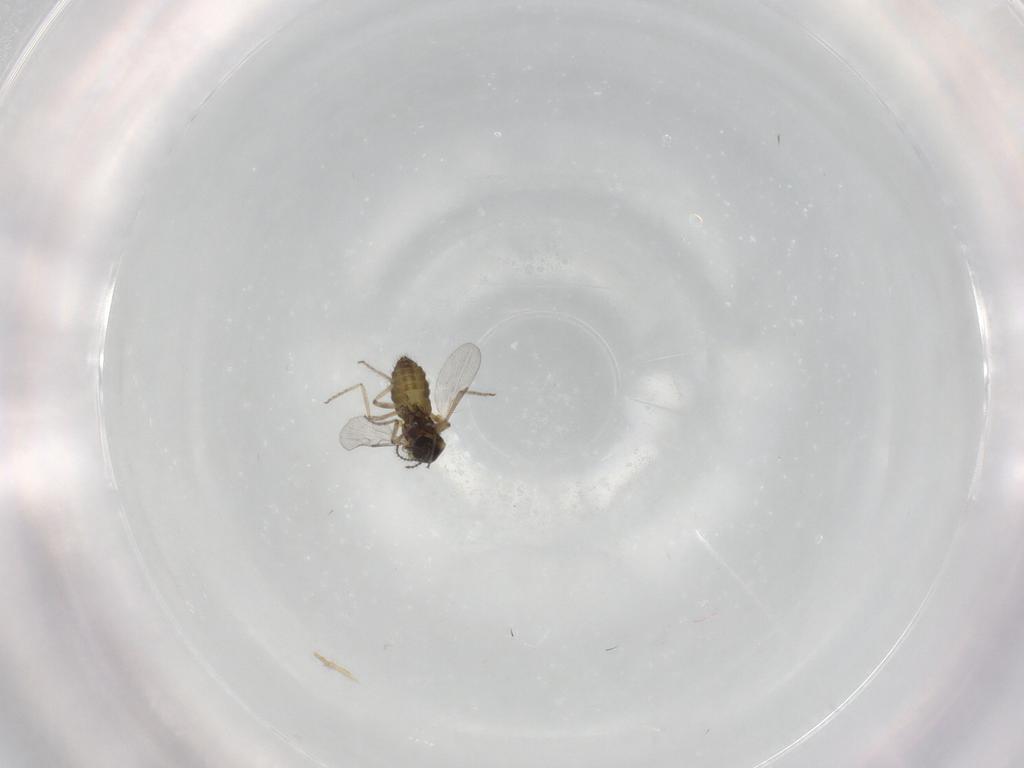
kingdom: Animalia
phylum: Arthropoda
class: Insecta
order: Diptera
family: Ceratopogonidae
